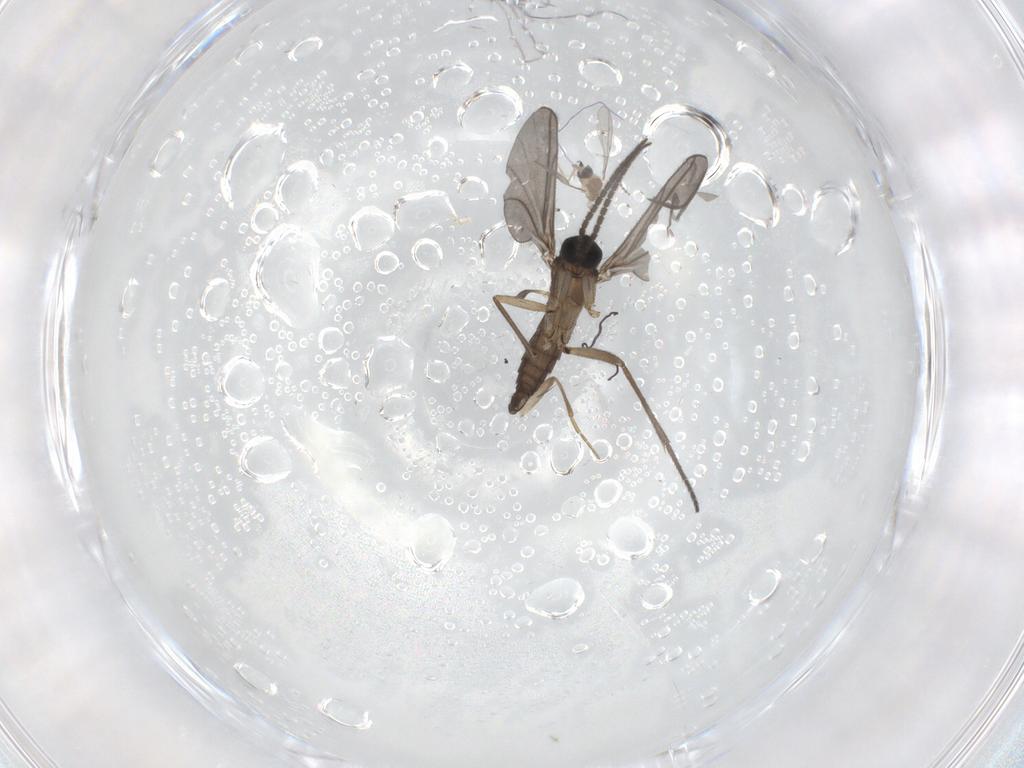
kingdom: Animalia
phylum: Arthropoda
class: Insecta
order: Diptera
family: Cecidomyiidae
